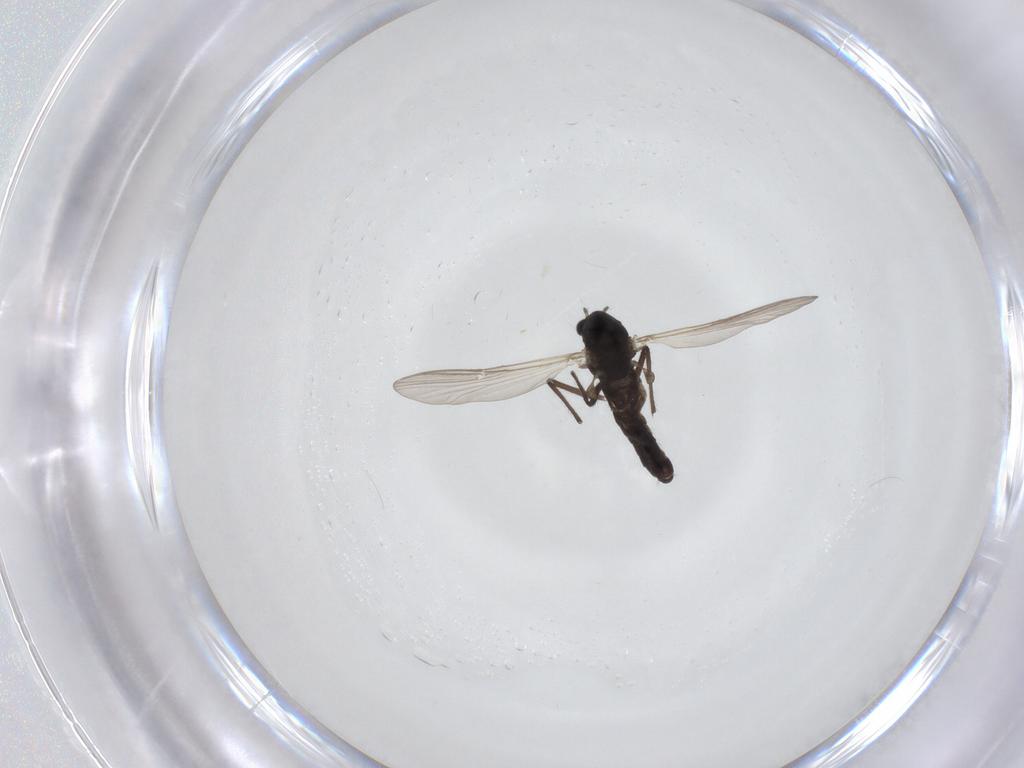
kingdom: Animalia
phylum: Arthropoda
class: Insecta
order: Diptera
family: Chironomidae
